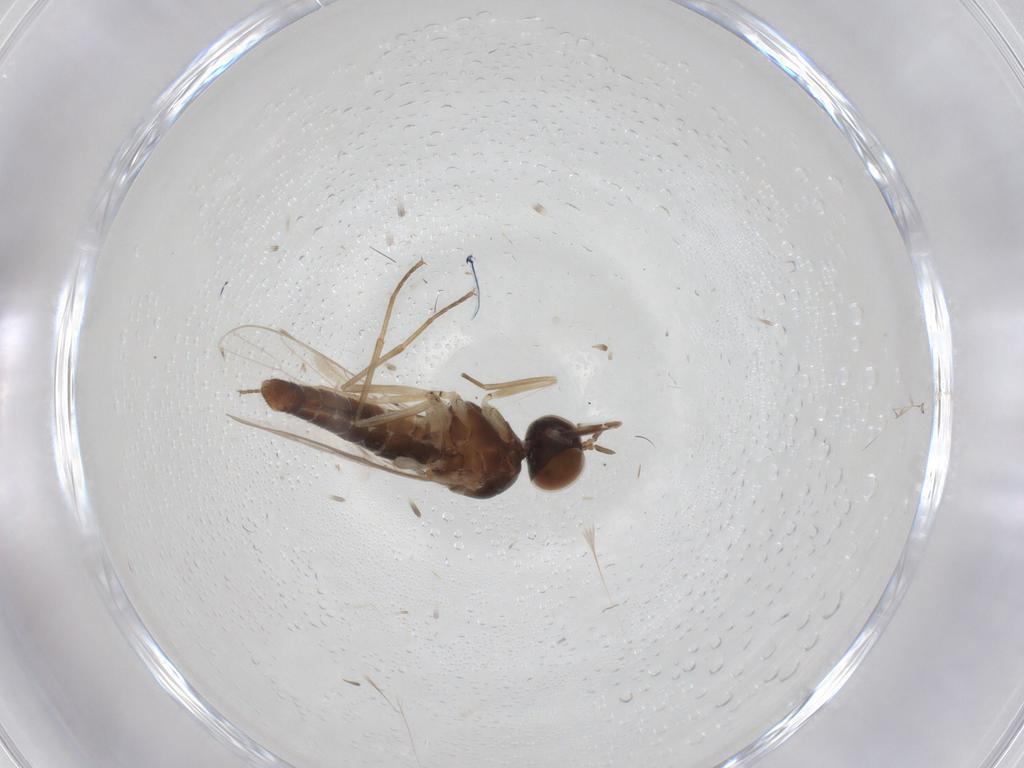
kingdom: Animalia
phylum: Arthropoda
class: Insecta
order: Diptera
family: Scenopinidae
